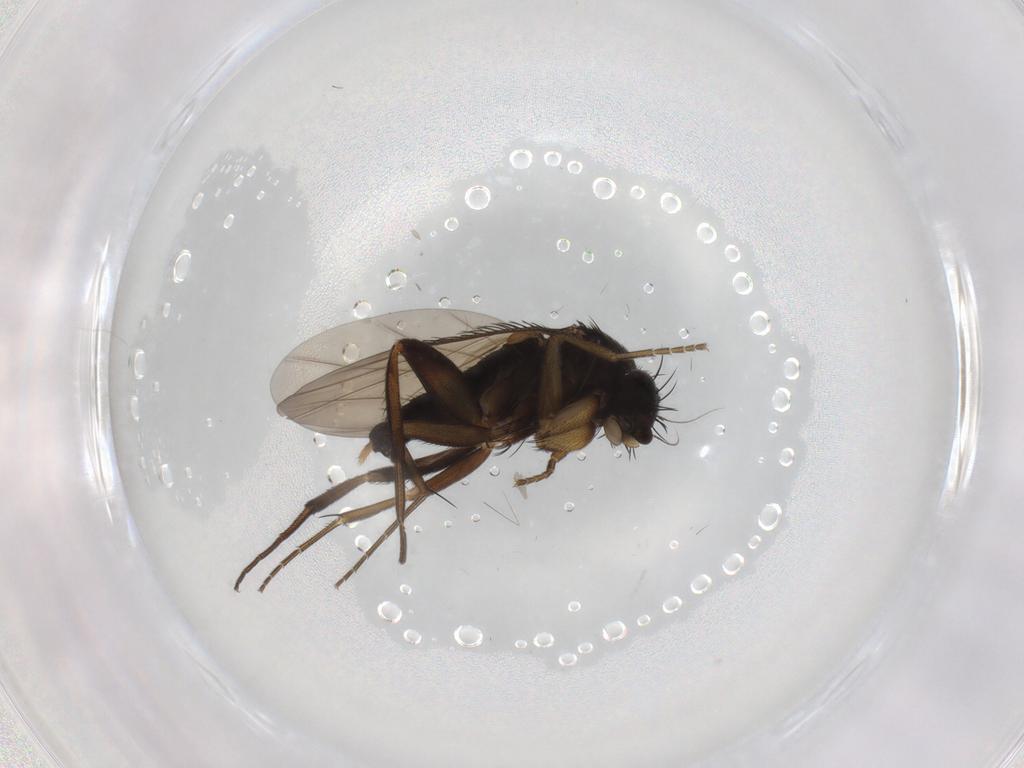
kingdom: Animalia
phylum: Arthropoda
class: Insecta
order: Diptera
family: Phoridae
